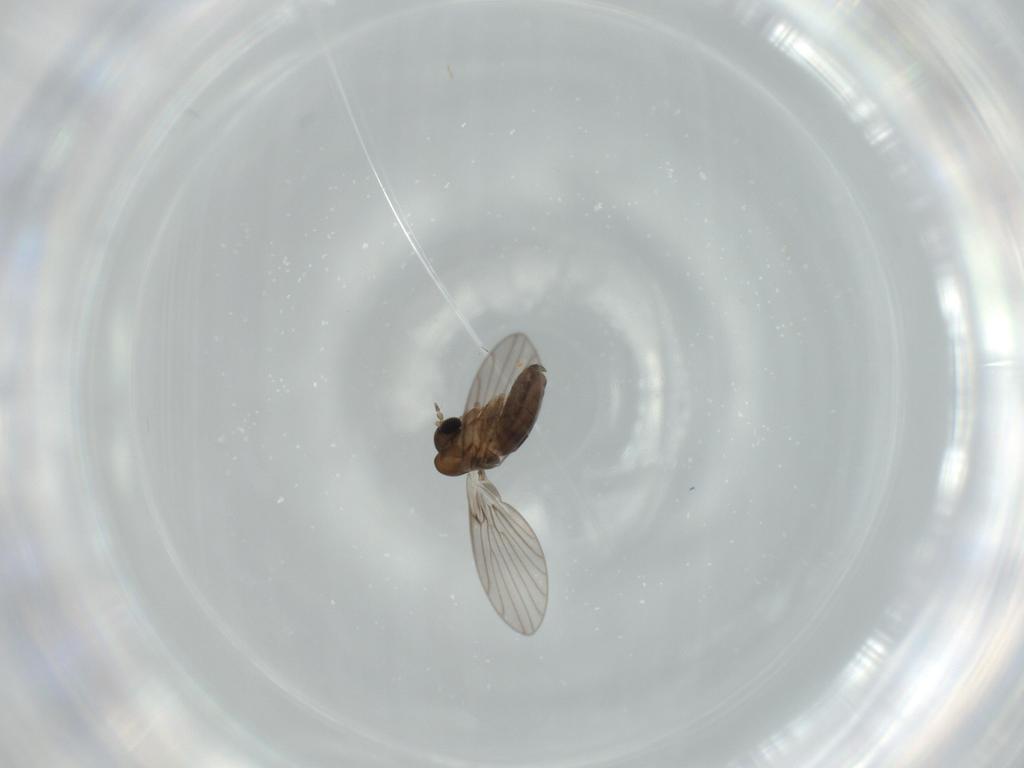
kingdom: Animalia
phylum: Arthropoda
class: Insecta
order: Diptera
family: Psychodidae
